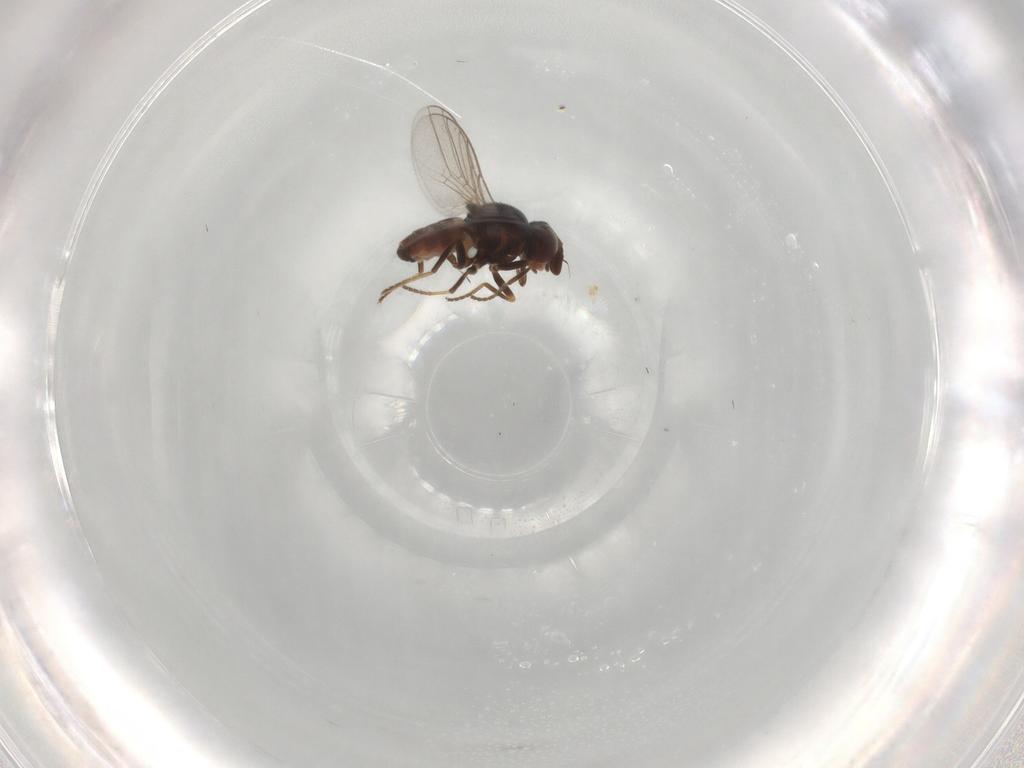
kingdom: Animalia
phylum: Arthropoda
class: Insecta
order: Diptera
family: Chloropidae
